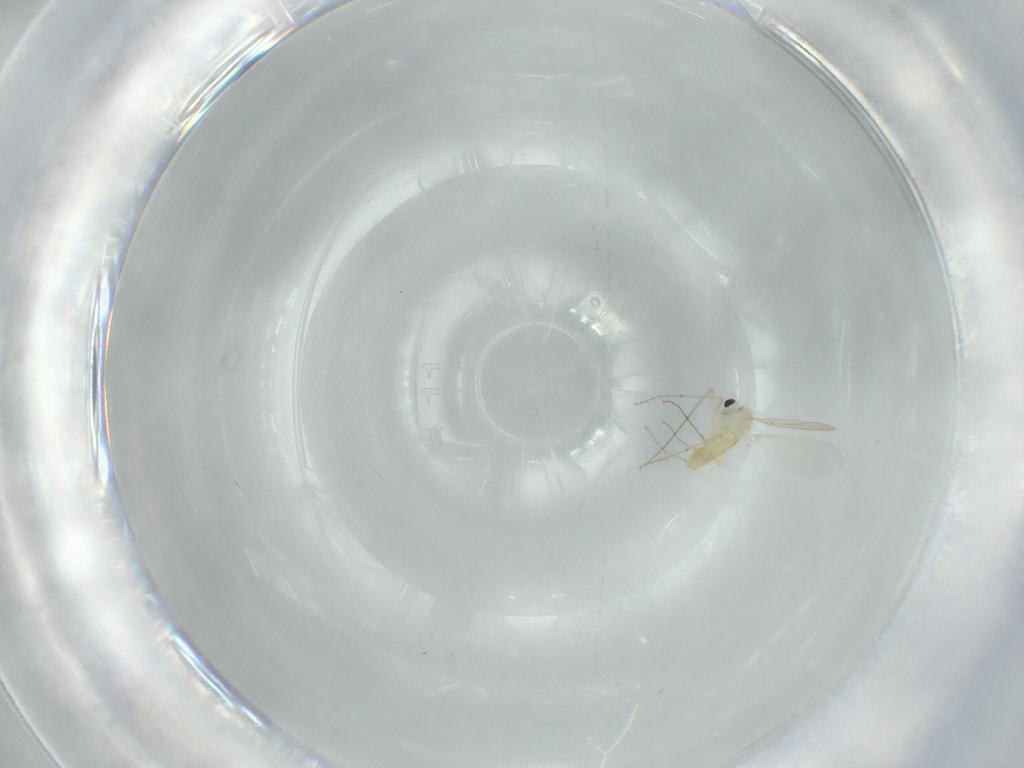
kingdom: Animalia
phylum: Arthropoda
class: Insecta
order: Diptera
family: Chironomidae
